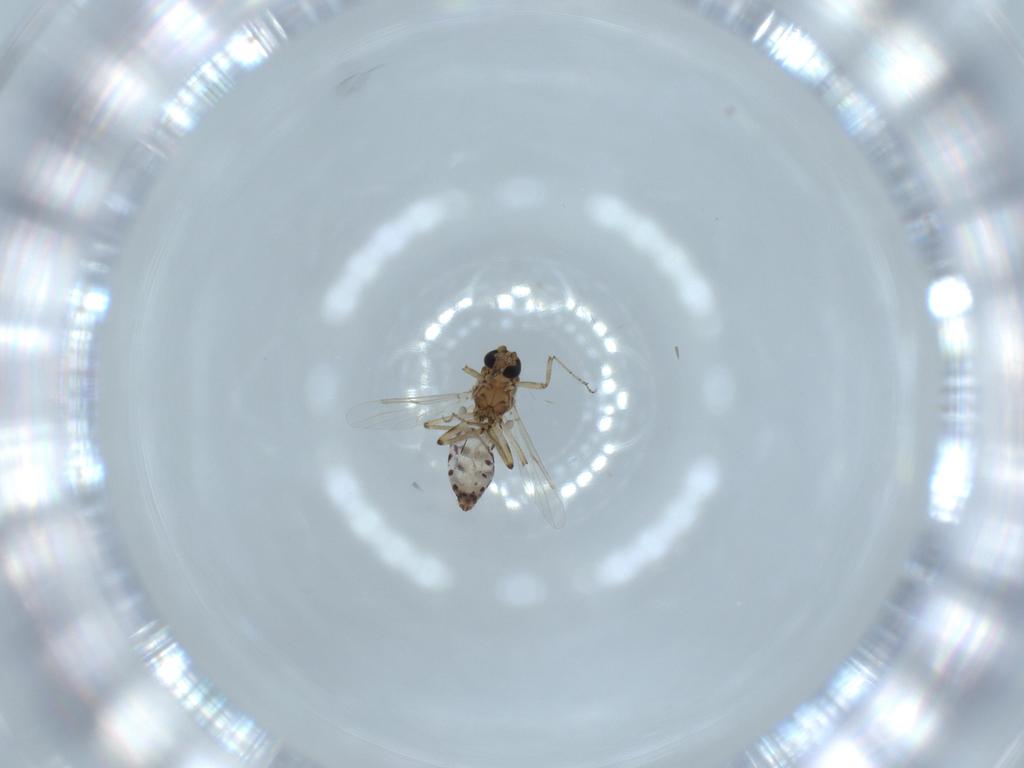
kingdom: Animalia
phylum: Arthropoda
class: Insecta
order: Diptera
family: Ceratopogonidae
